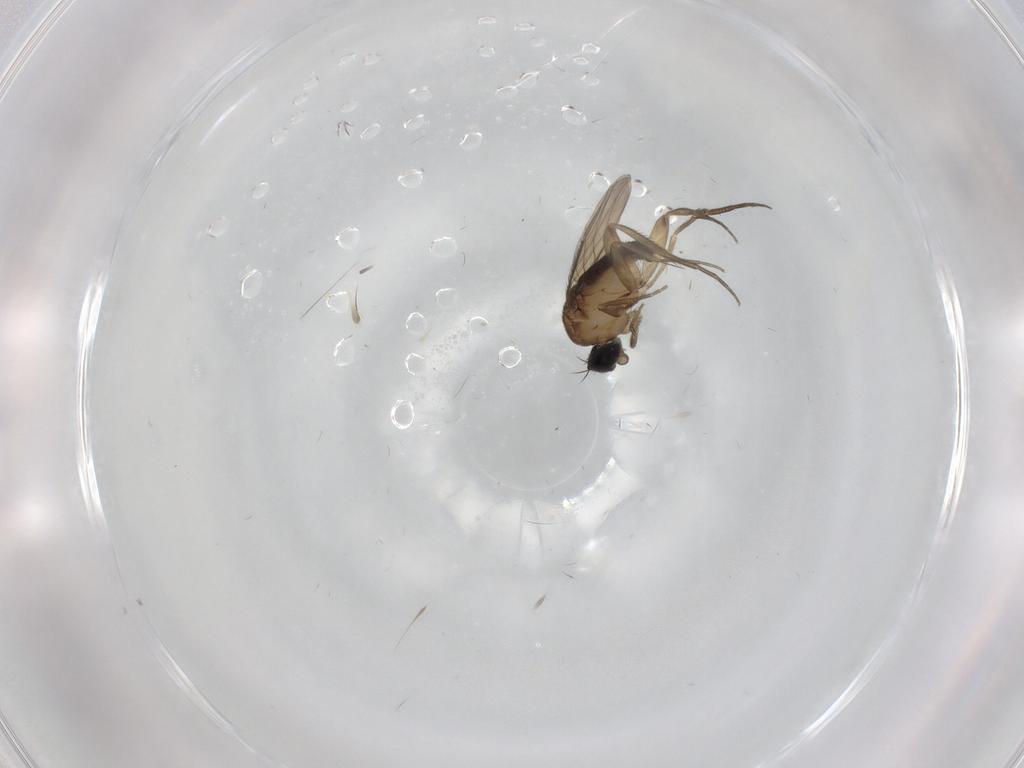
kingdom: Animalia
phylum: Arthropoda
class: Insecta
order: Diptera
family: Phoridae
